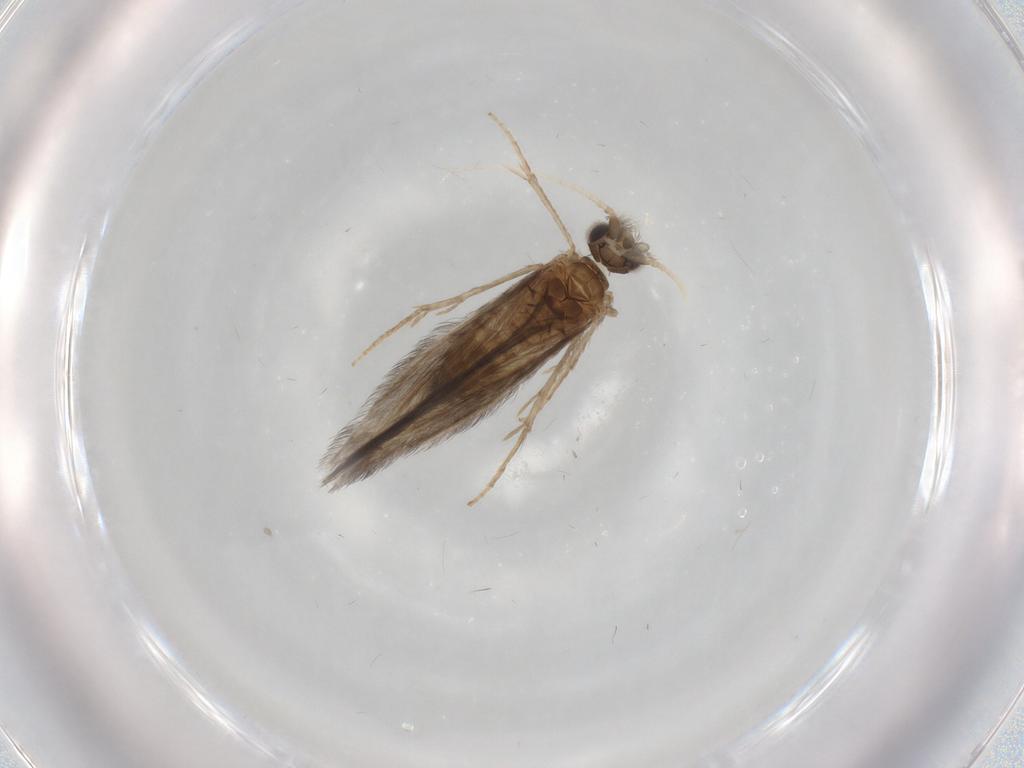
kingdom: Animalia
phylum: Arthropoda
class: Insecta
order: Trichoptera
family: Hydroptilidae
